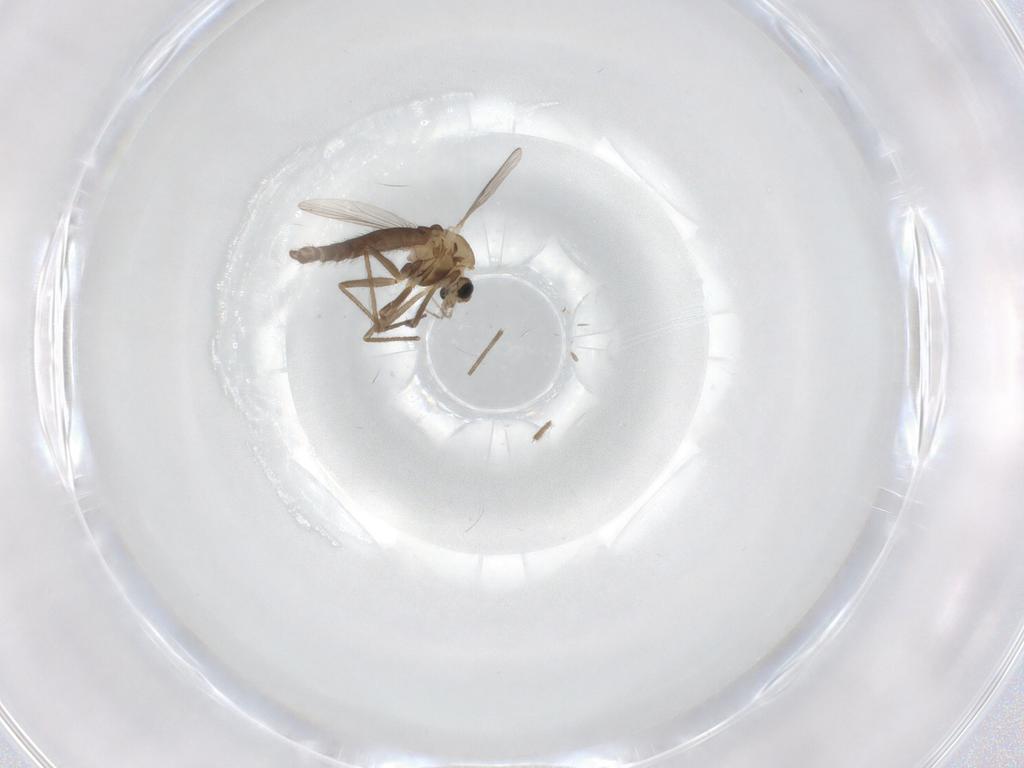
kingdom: Animalia
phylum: Arthropoda
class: Insecta
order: Diptera
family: Chironomidae
